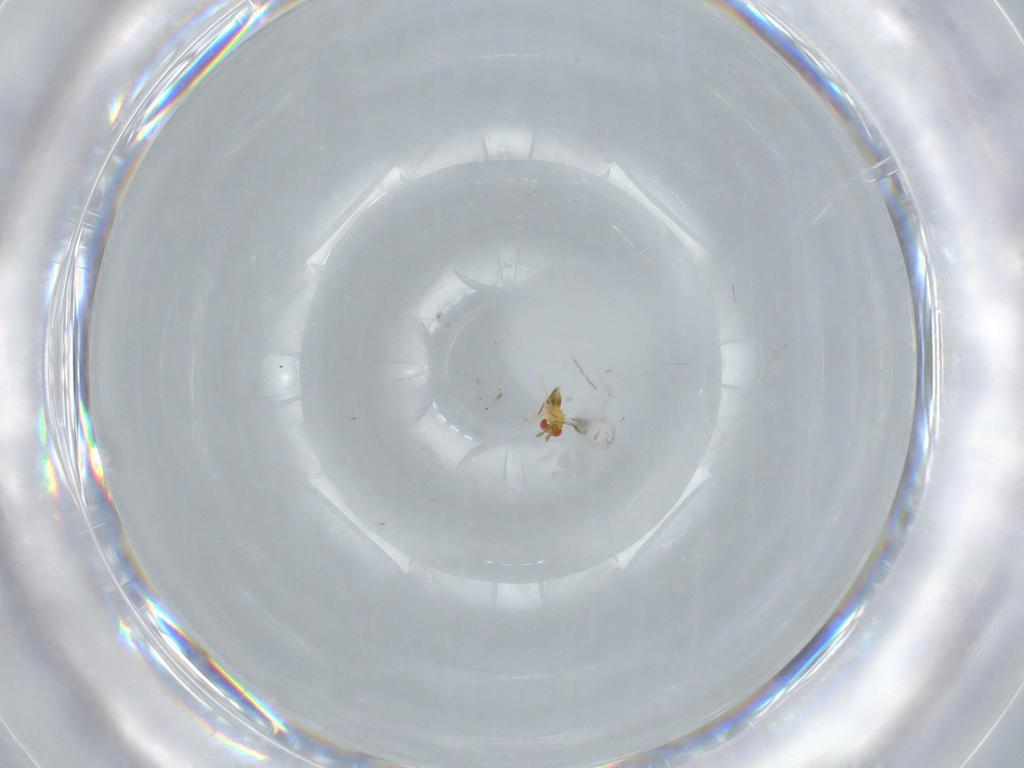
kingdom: Animalia
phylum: Arthropoda
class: Insecta
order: Hymenoptera
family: Trichogrammatidae
